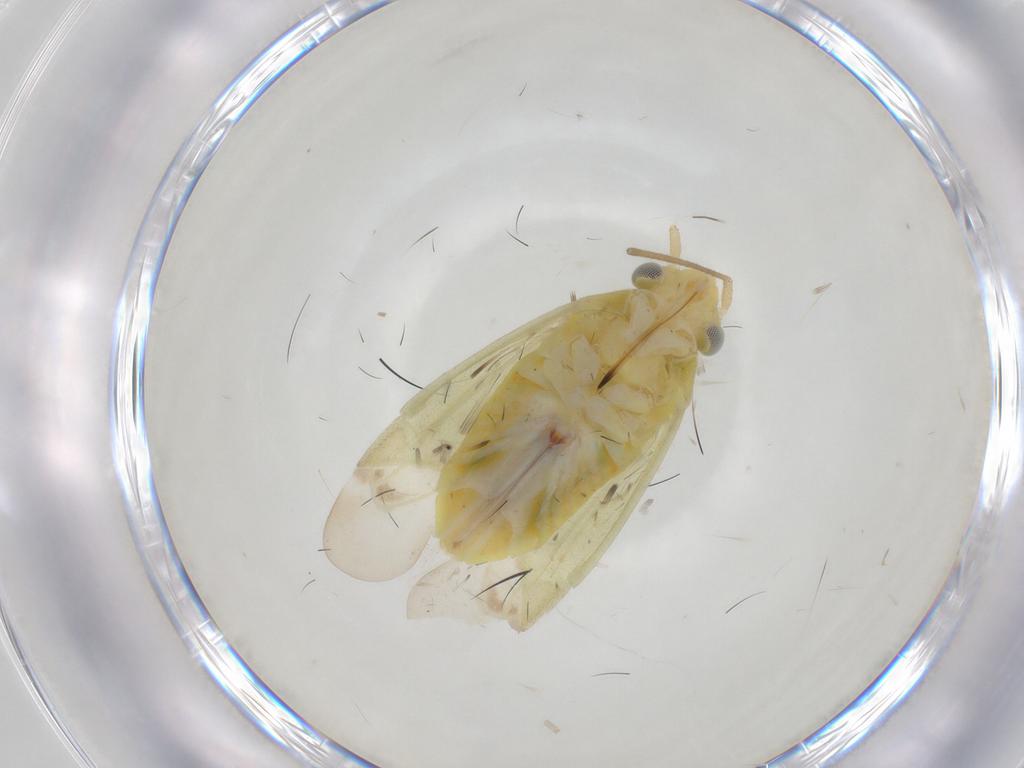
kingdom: Animalia
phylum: Arthropoda
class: Insecta
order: Hemiptera
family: Miridae
